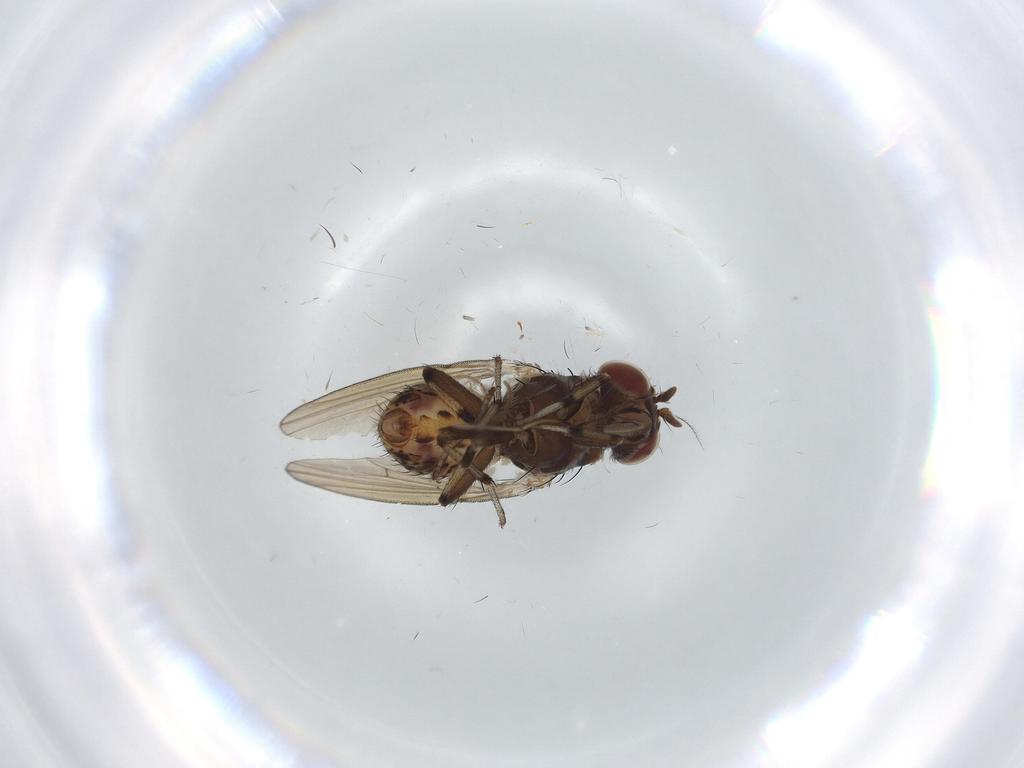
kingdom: Animalia
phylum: Arthropoda
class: Insecta
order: Diptera
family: Chironomidae
